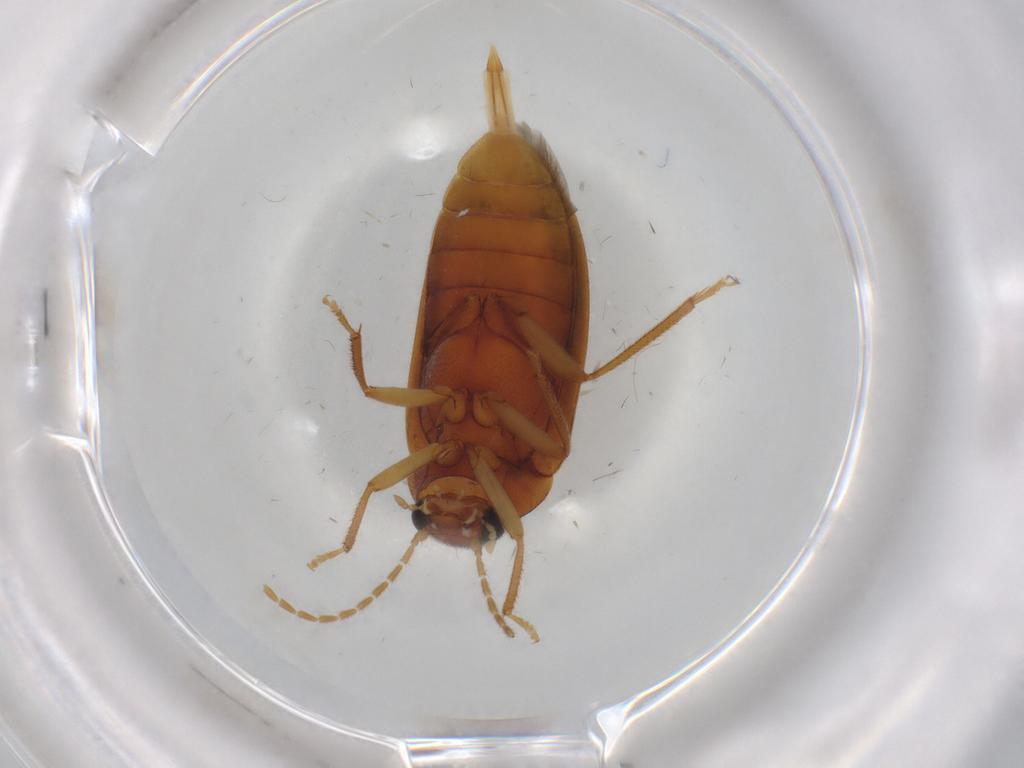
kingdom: Animalia
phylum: Arthropoda
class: Insecta
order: Coleoptera
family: Ptilodactylidae
